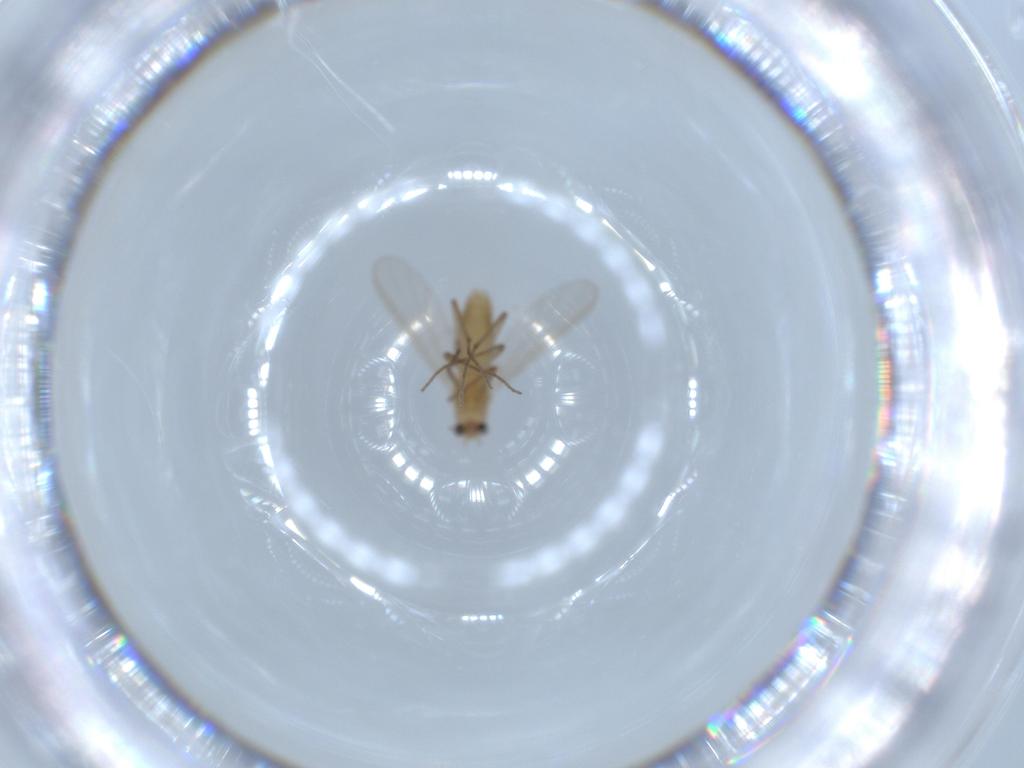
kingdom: Animalia
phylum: Arthropoda
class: Insecta
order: Diptera
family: Chironomidae
